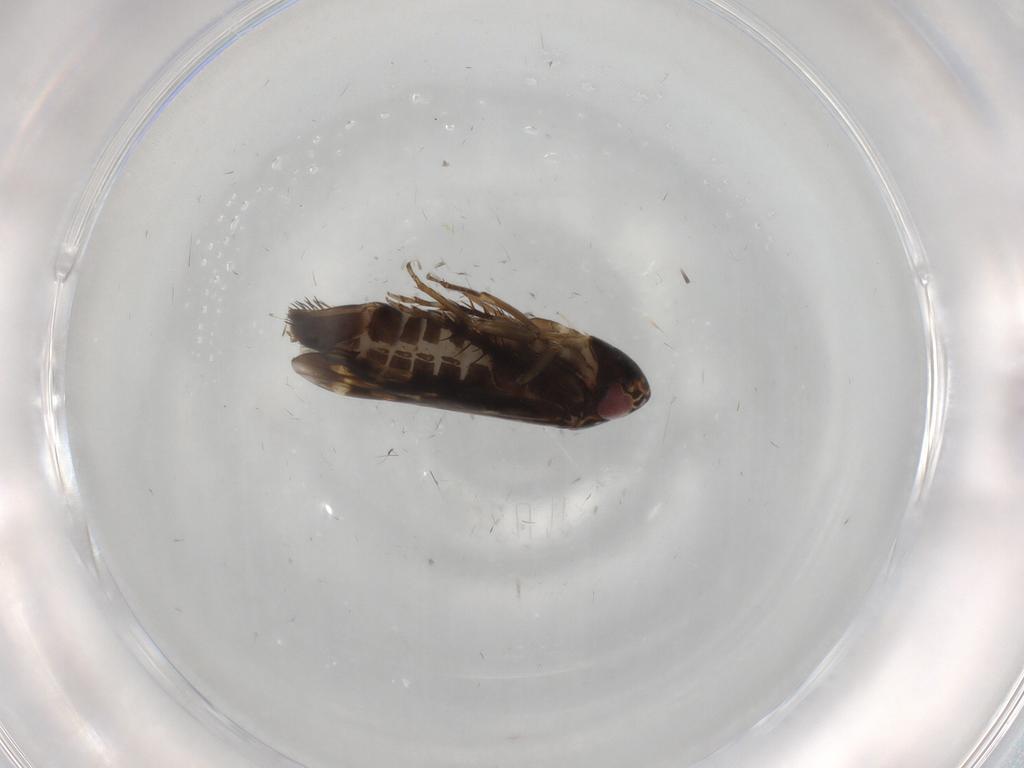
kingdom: Animalia
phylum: Arthropoda
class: Insecta
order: Hemiptera
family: Cicadellidae
